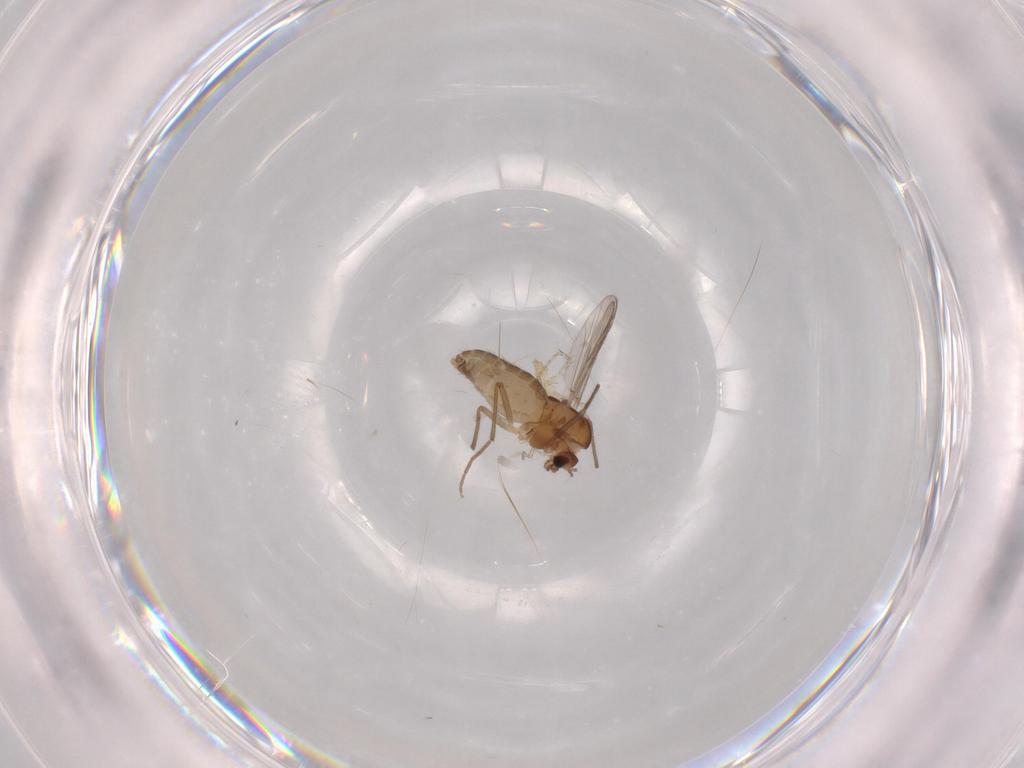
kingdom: Animalia
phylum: Arthropoda
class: Insecta
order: Diptera
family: Chironomidae
